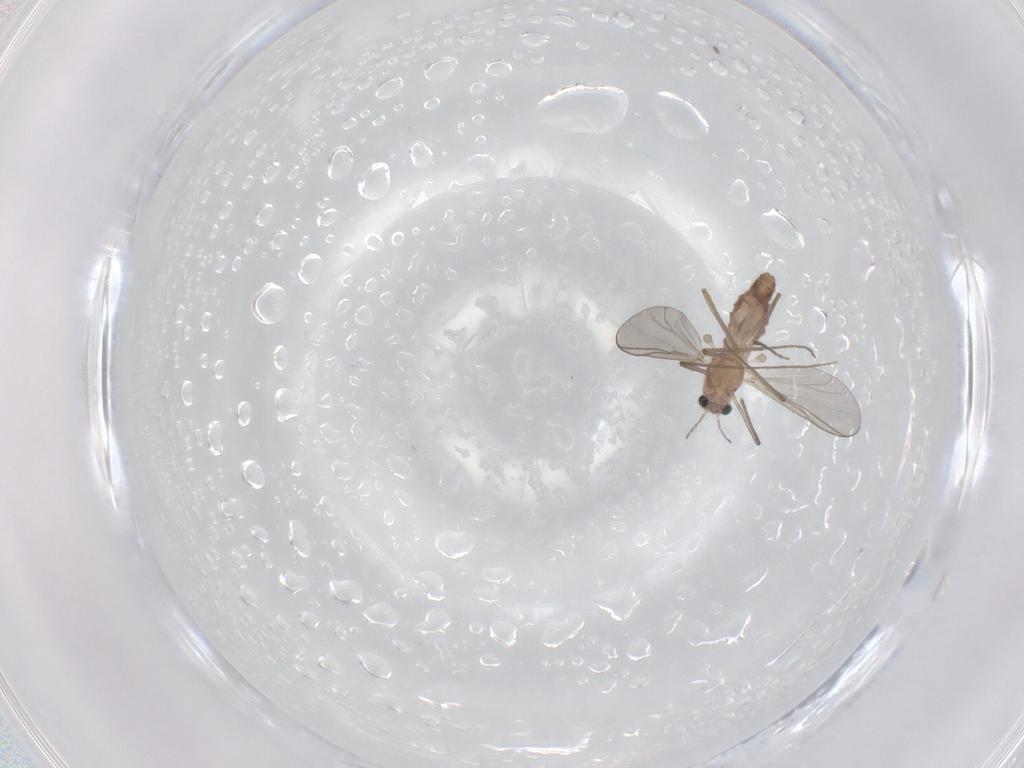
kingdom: Animalia
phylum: Arthropoda
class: Insecta
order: Diptera
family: Chironomidae
